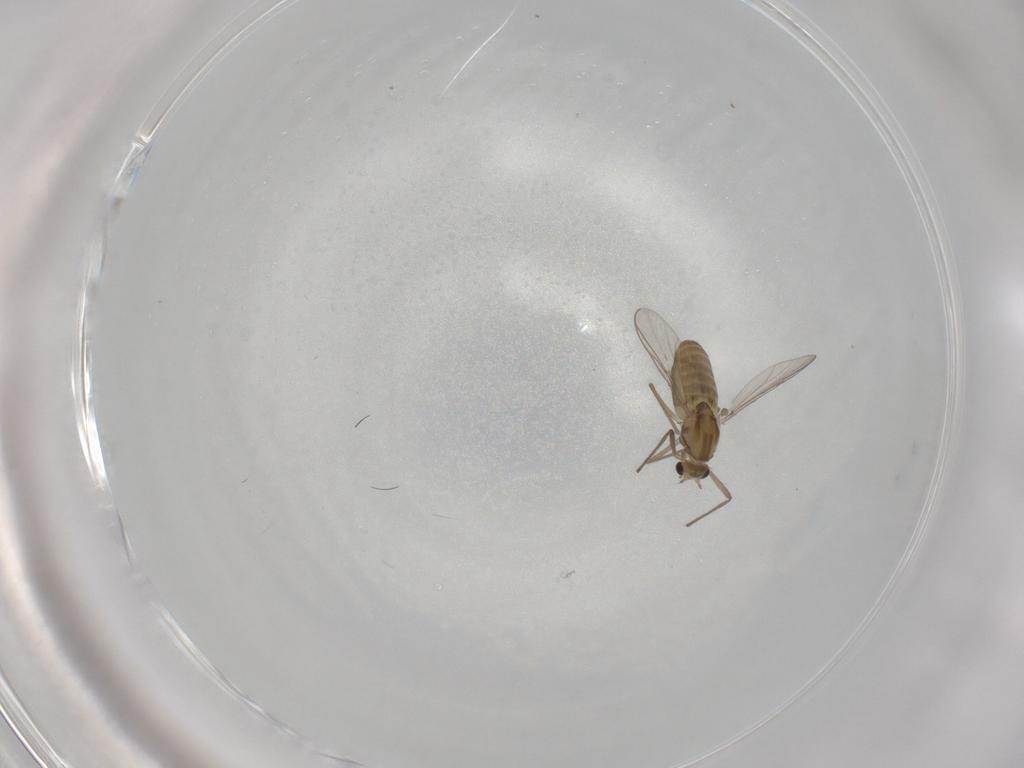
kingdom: Animalia
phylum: Arthropoda
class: Insecta
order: Diptera
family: Chironomidae
